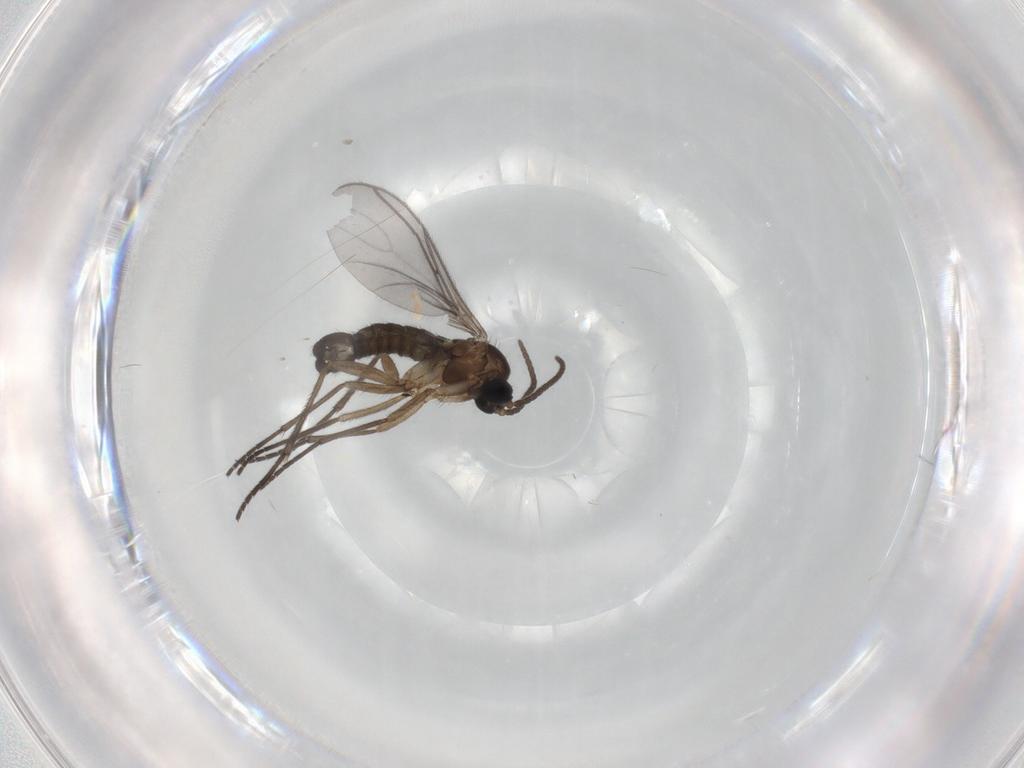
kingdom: Animalia
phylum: Arthropoda
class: Insecta
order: Diptera
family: Sciaridae
